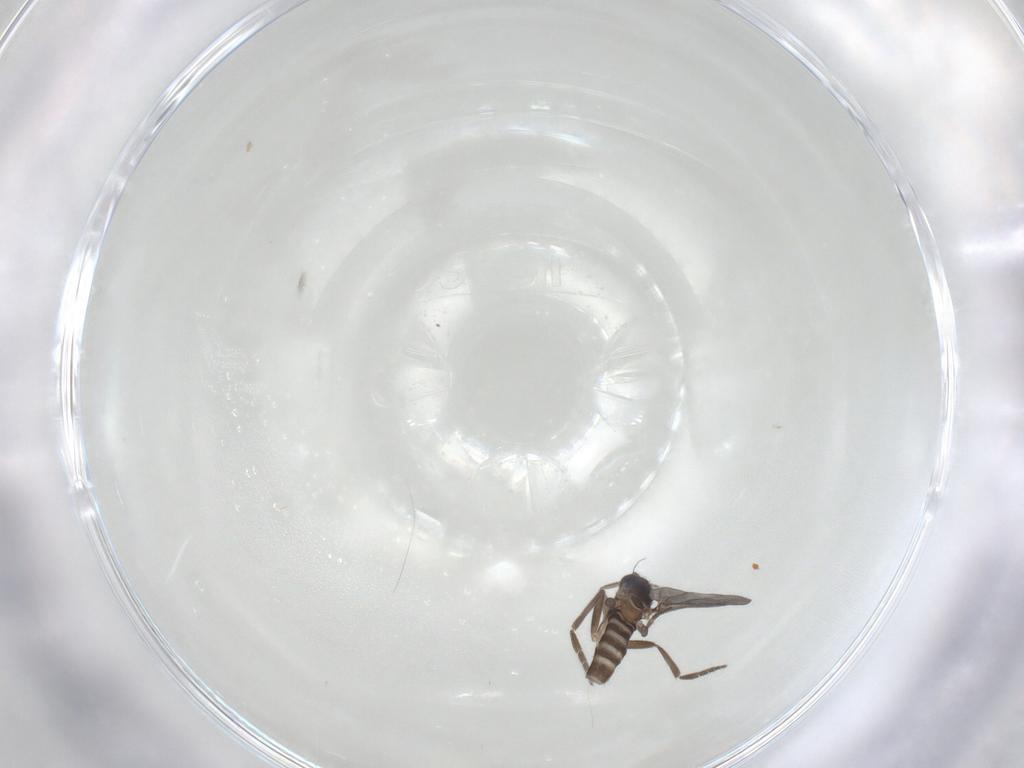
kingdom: Animalia
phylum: Arthropoda
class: Insecta
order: Diptera
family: Phoridae
